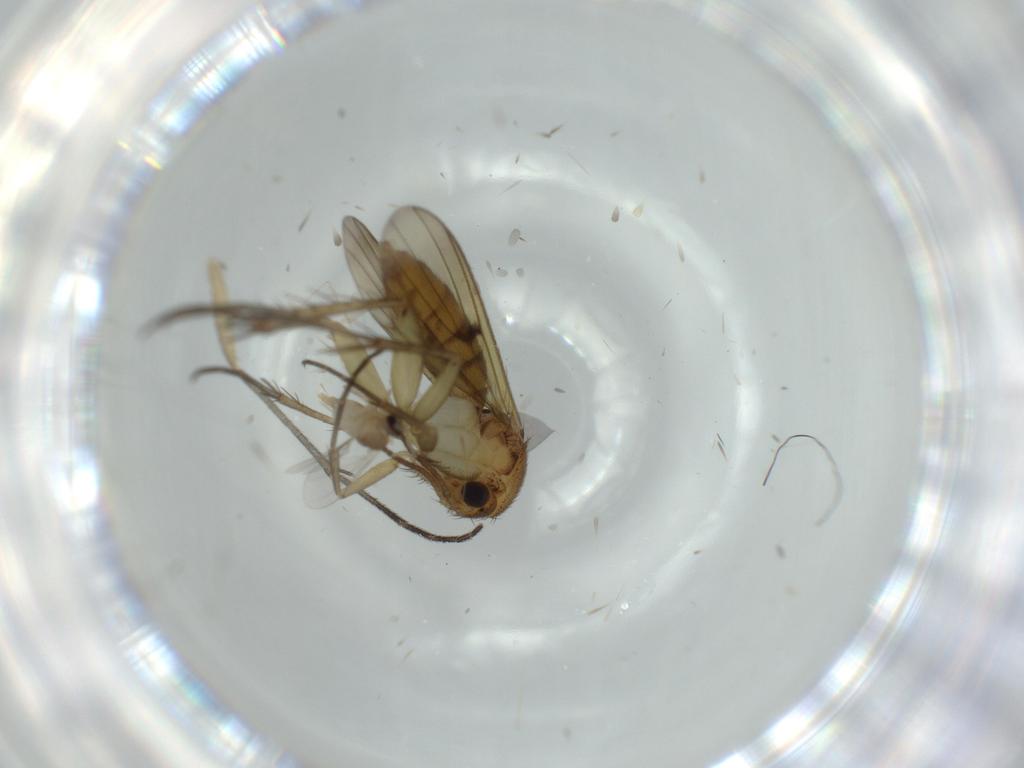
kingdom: Animalia
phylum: Arthropoda
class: Insecta
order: Diptera
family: Mycetophilidae
